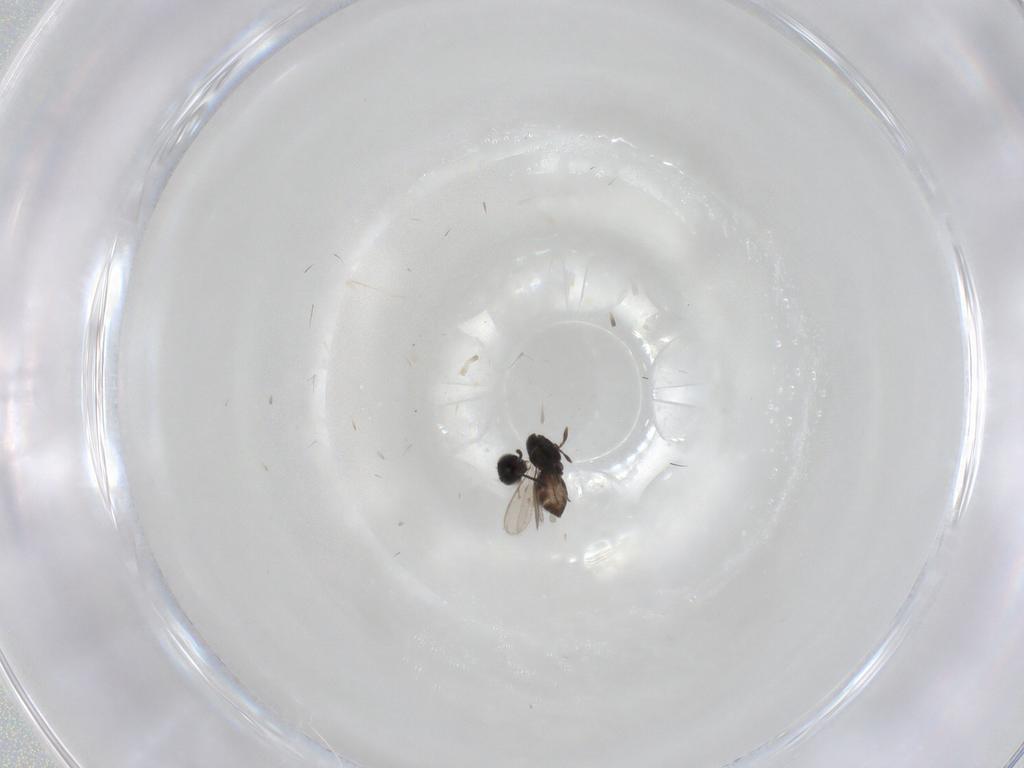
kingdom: Animalia
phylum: Arthropoda
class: Insecta
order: Hymenoptera
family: Scelionidae
